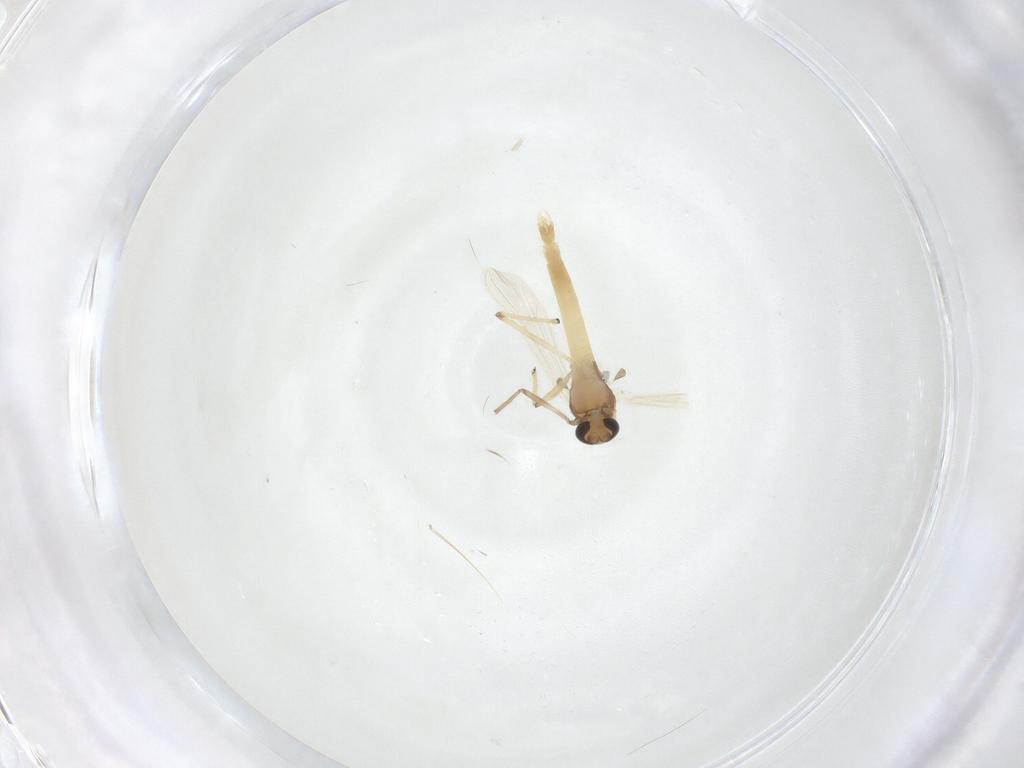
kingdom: Animalia
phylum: Arthropoda
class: Insecta
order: Diptera
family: Chironomidae
